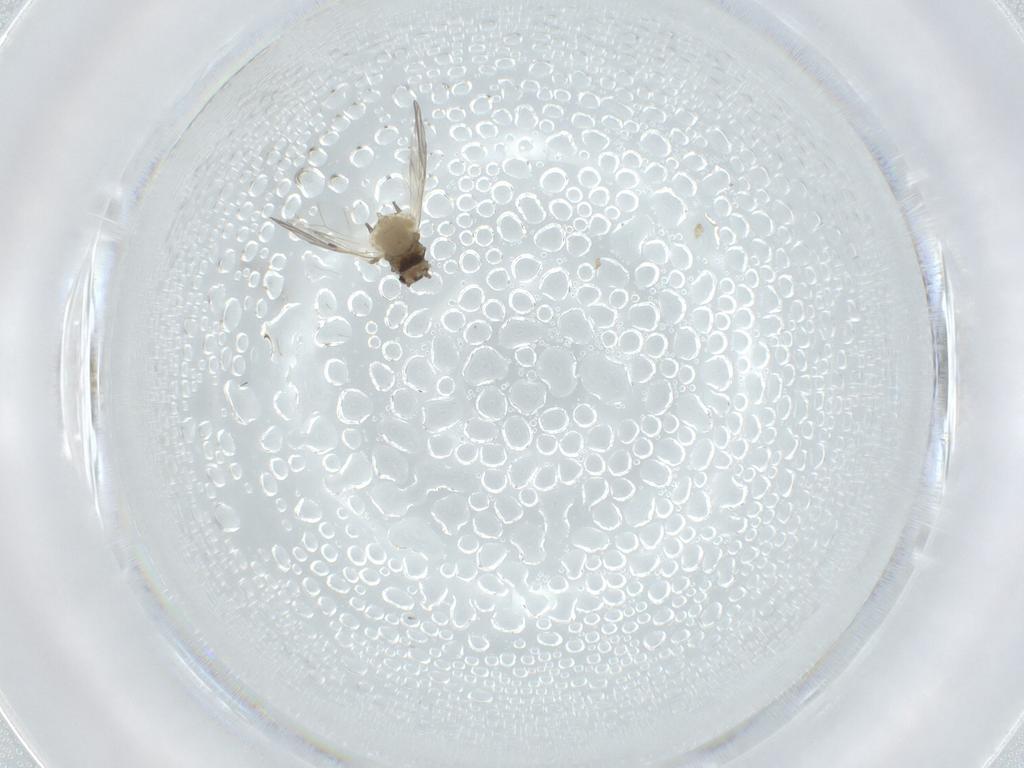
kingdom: Animalia
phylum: Arthropoda
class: Insecta
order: Hemiptera
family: Aphididae
